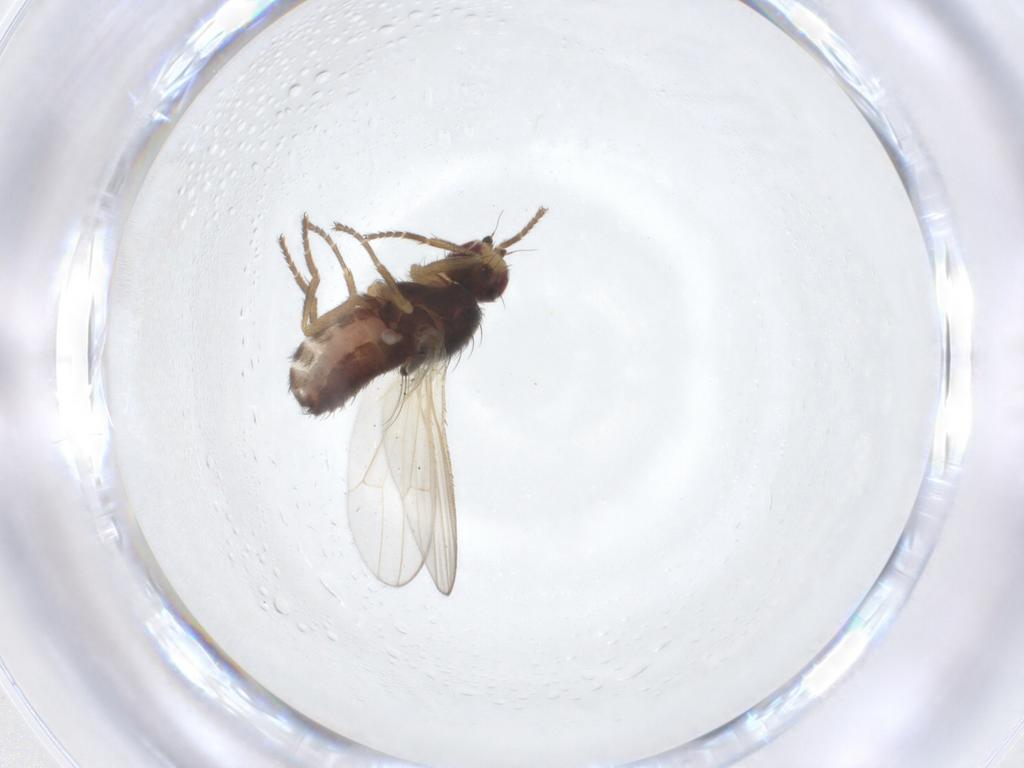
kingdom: Animalia
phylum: Arthropoda
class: Insecta
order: Diptera
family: Heleomyzidae
